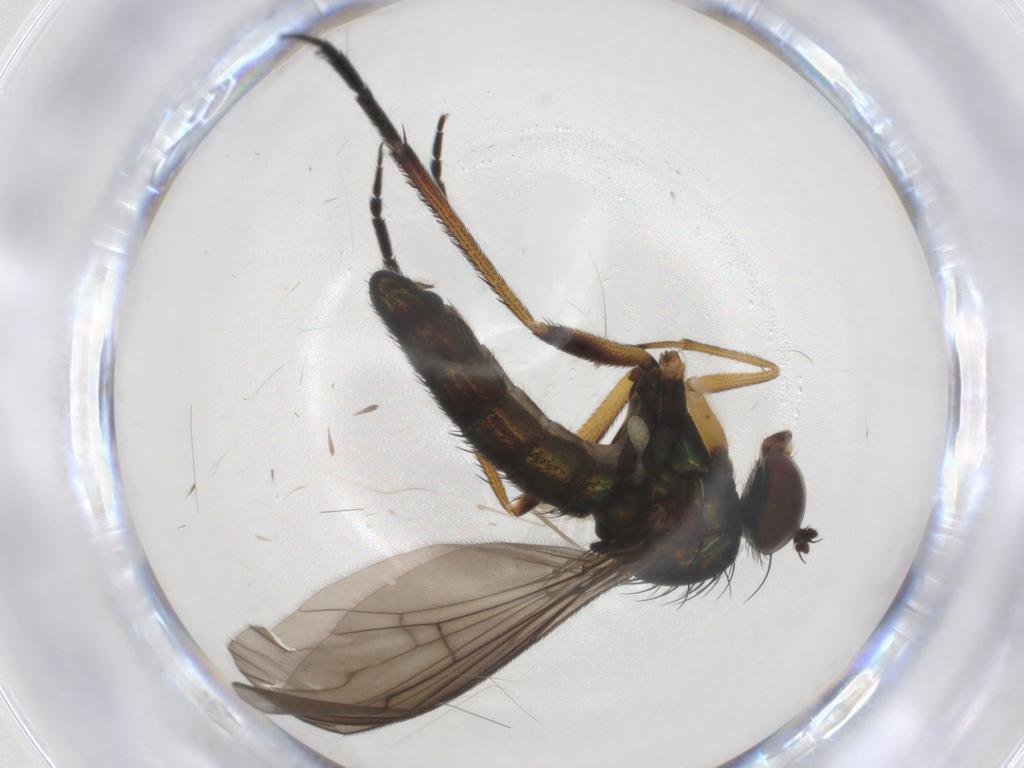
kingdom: Animalia
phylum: Arthropoda
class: Insecta
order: Diptera
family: Dolichopodidae
